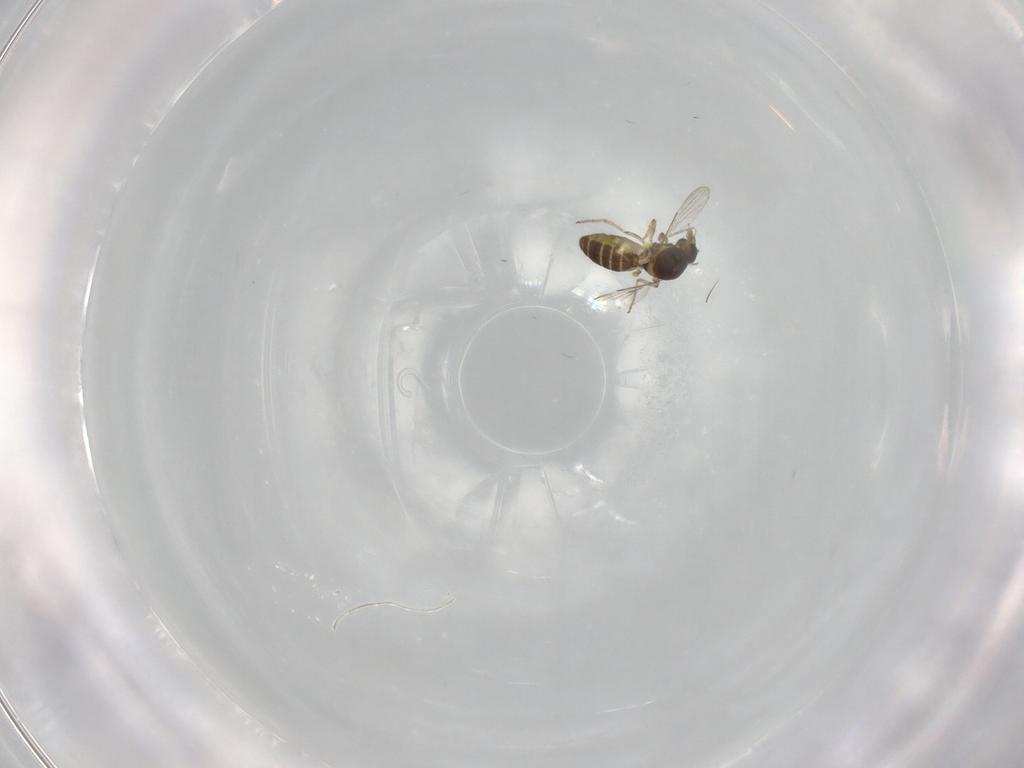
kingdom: Animalia
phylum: Arthropoda
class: Insecta
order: Diptera
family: Ceratopogonidae
